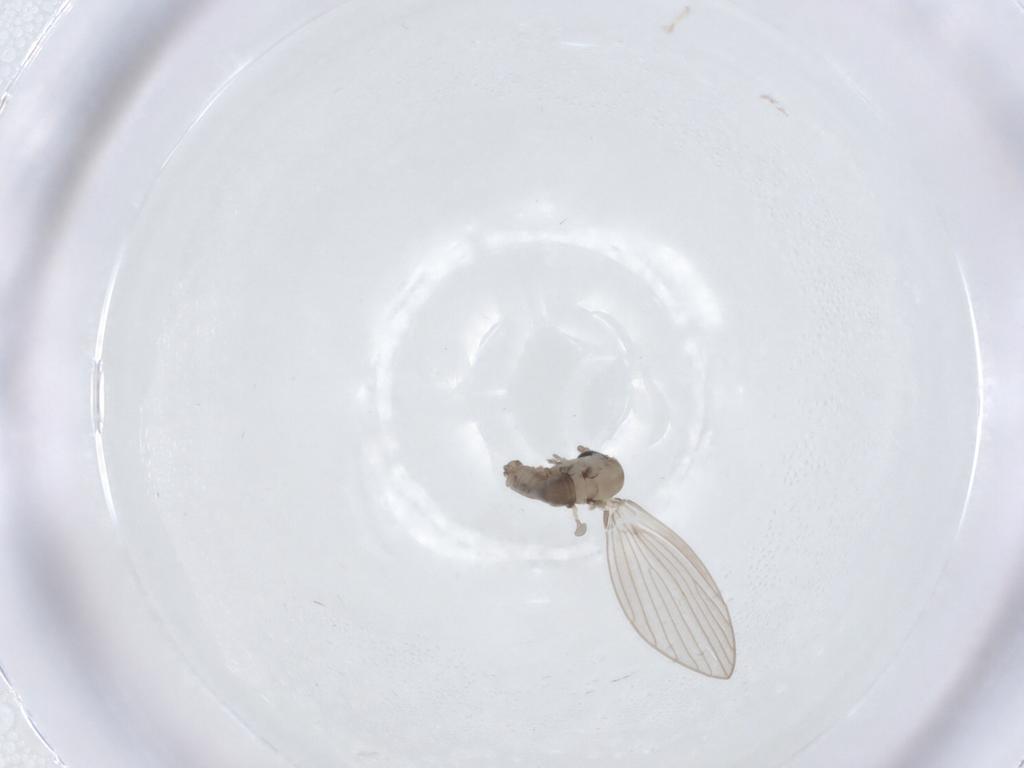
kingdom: Animalia
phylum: Arthropoda
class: Insecta
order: Diptera
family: Psychodidae
